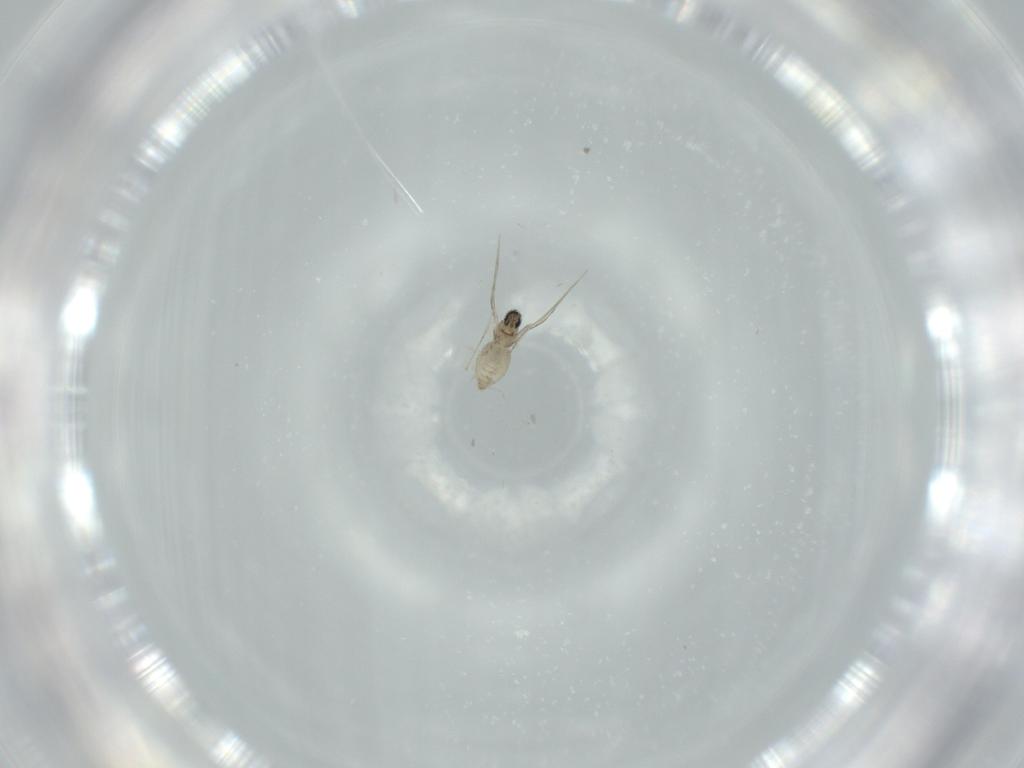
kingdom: Animalia
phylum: Arthropoda
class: Insecta
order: Diptera
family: Cecidomyiidae
